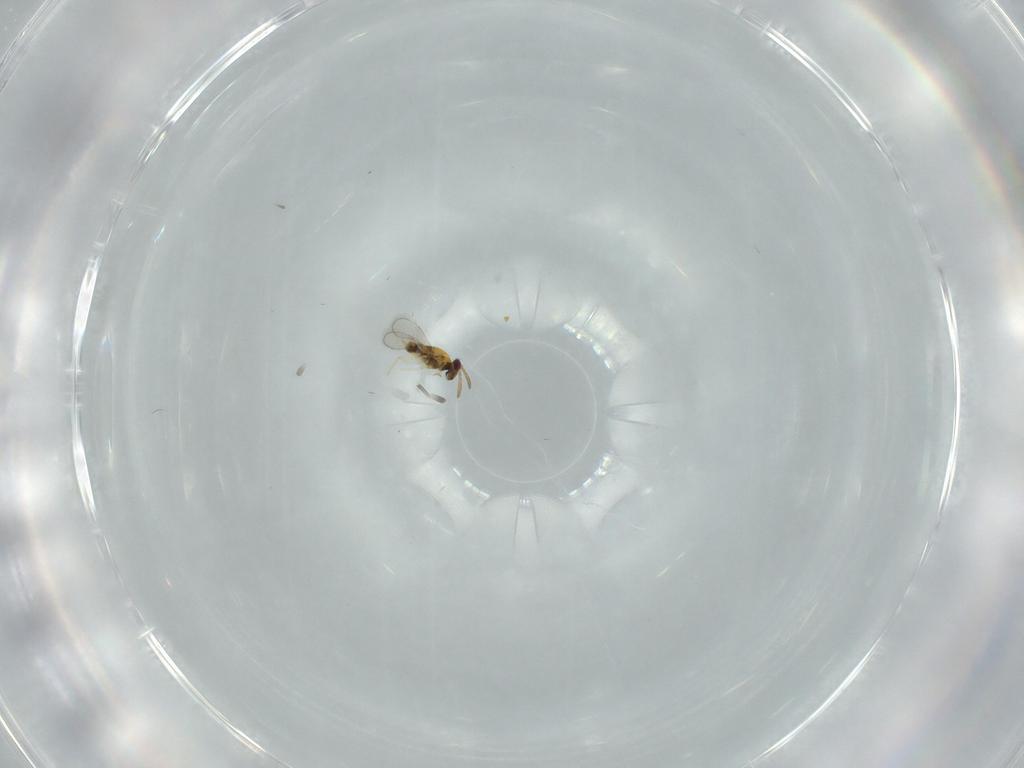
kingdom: Animalia
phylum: Arthropoda
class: Insecta
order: Hymenoptera
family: Aphelinidae
